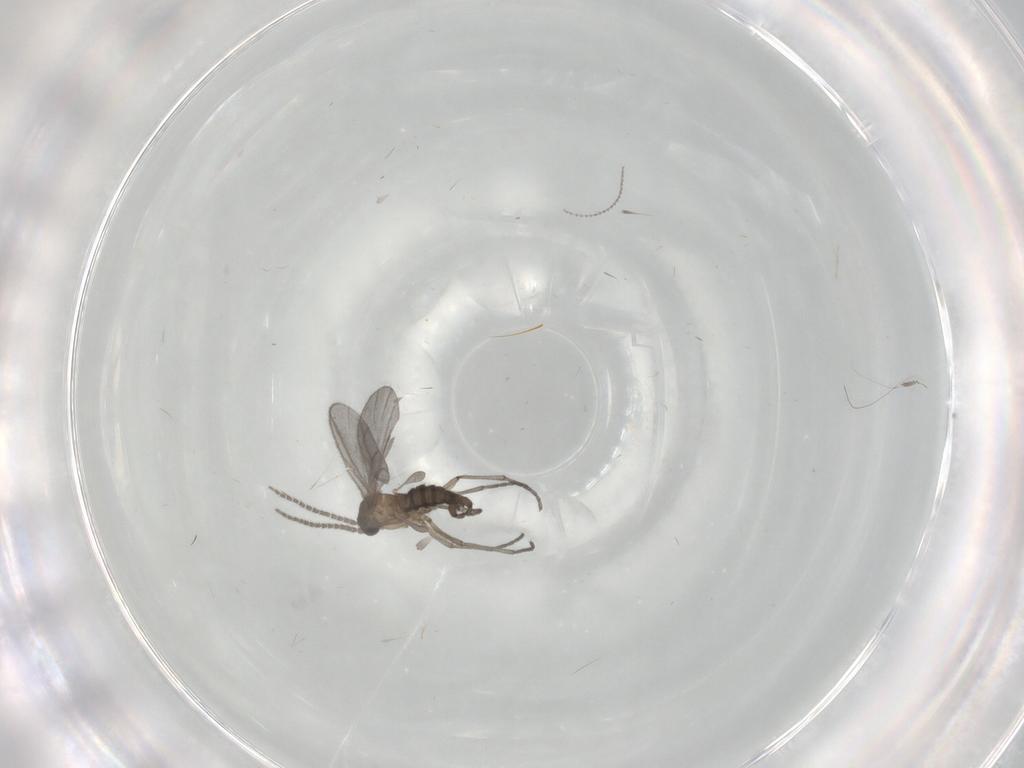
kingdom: Animalia
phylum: Arthropoda
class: Insecta
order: Diptera
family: Sciaridae
